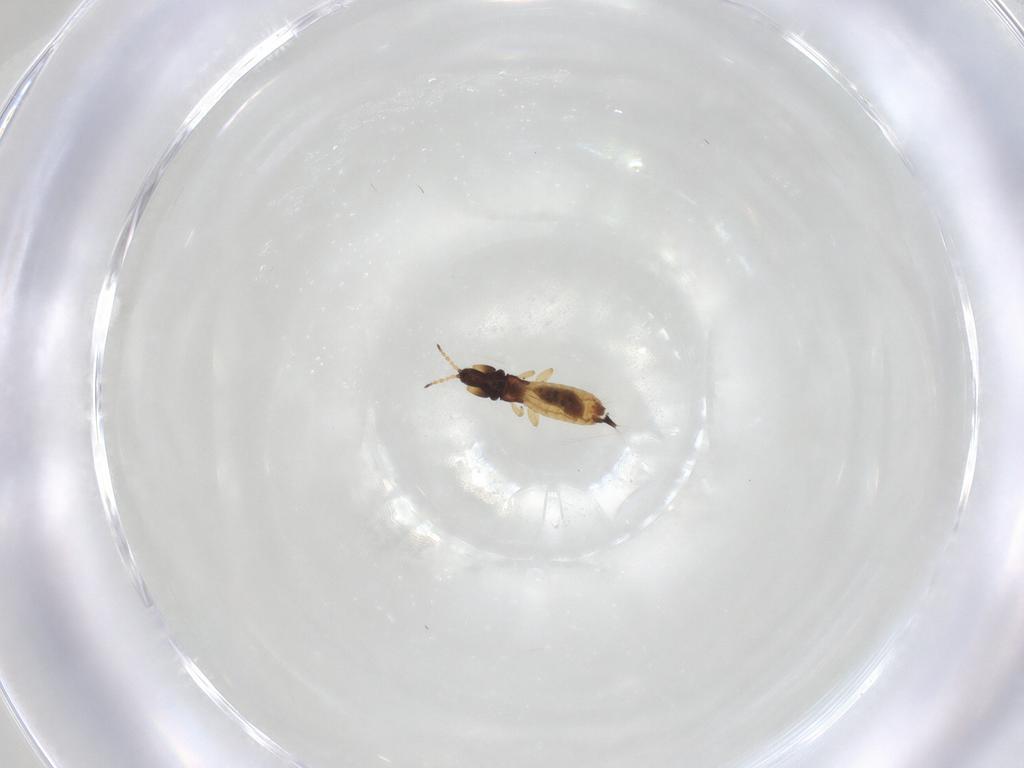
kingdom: Animalia
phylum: Arthropoda
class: Insecta
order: Thysanoptera
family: Phlaeothripidae
